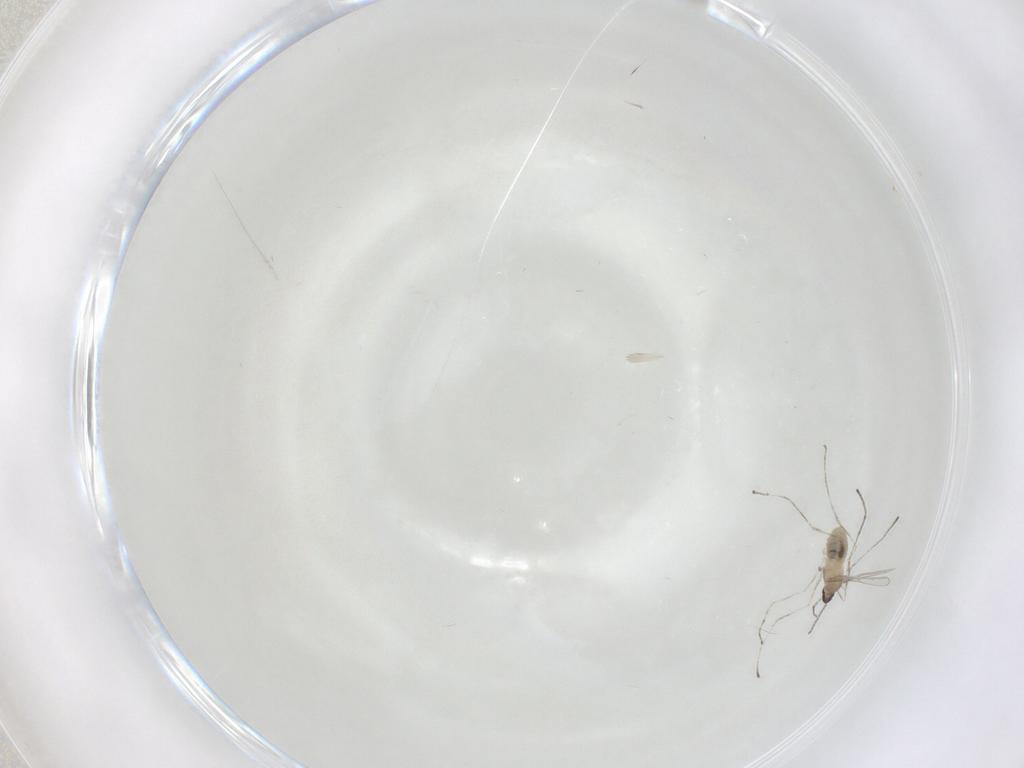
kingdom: Animalia
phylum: Arthropoda
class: Insecta
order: Diptera
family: Cecidomyiidae
